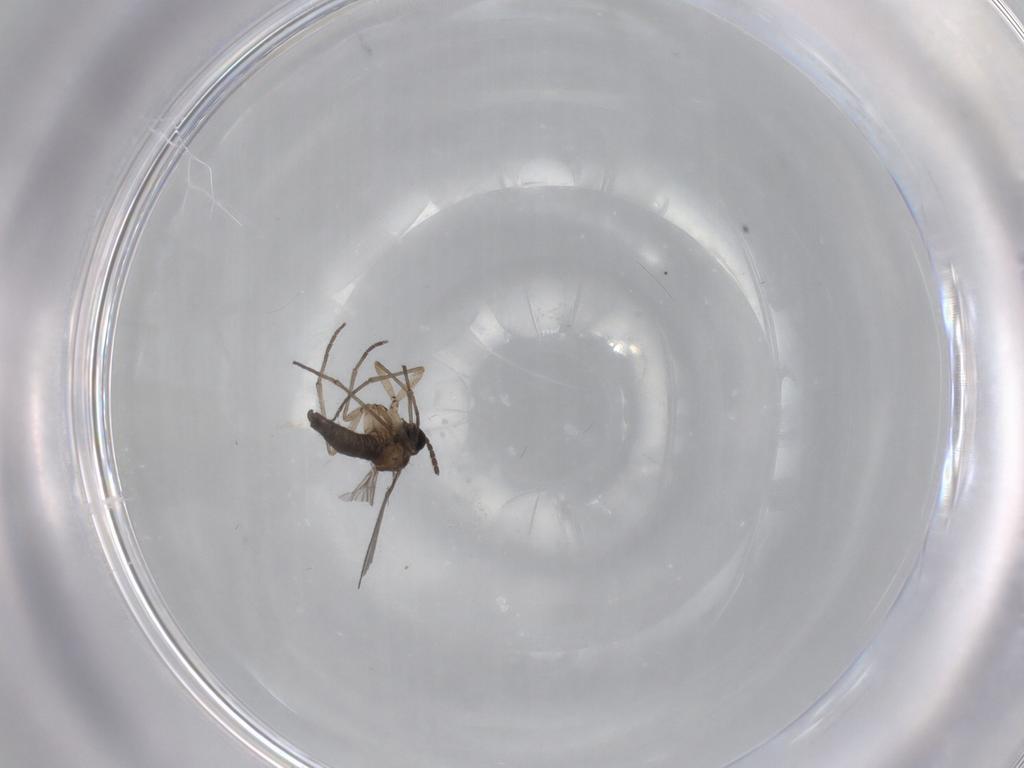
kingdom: Animalia
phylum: Arthropoda
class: Insecta
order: Diptera
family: Sciaridae
